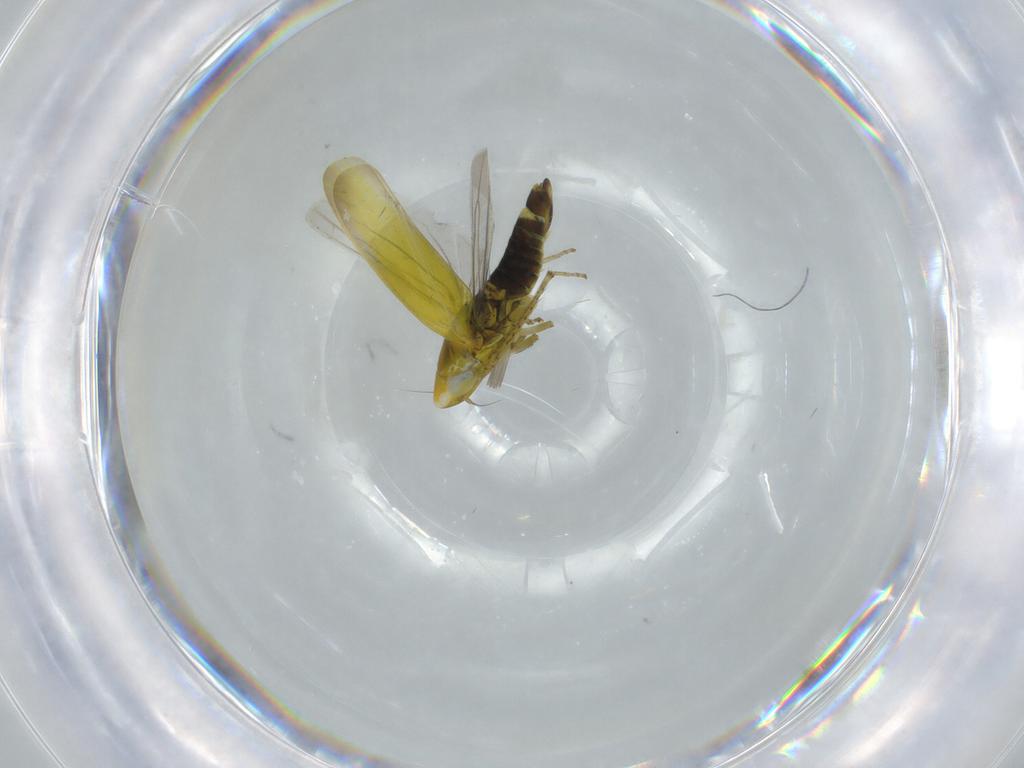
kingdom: Animalia
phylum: Arthropoda
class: Insecta
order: Hemiptera
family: Cicadellidae
